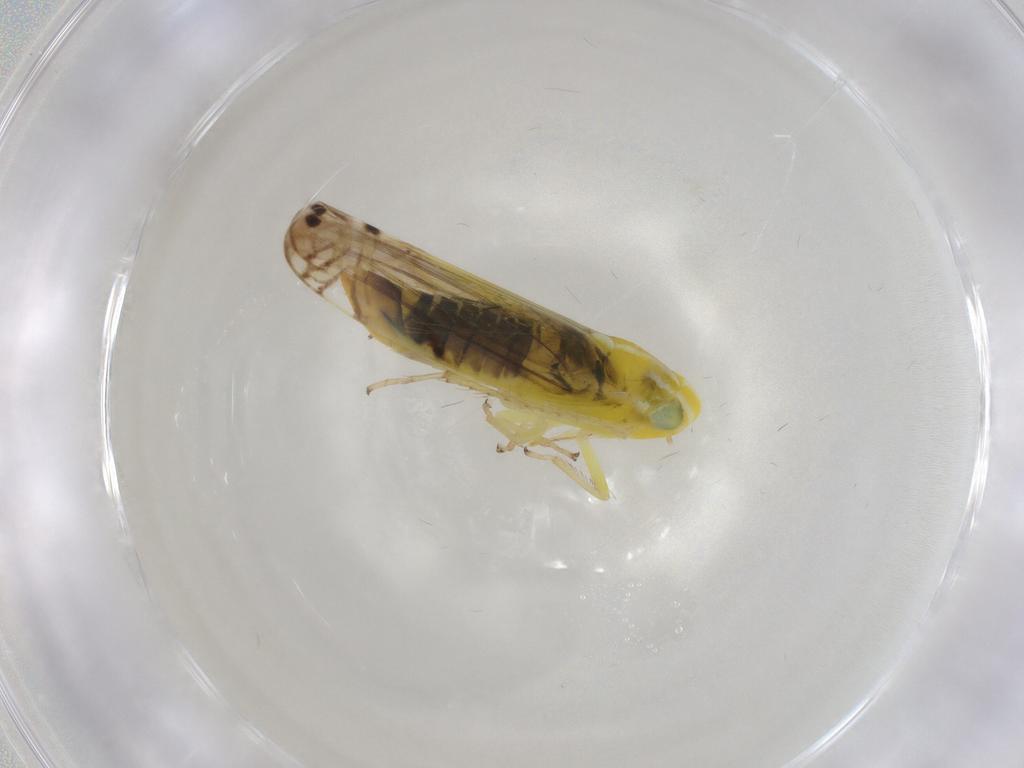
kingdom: Animalia
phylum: Arthropoda
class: Insecta
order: Hemiptera
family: Cicadellidae
